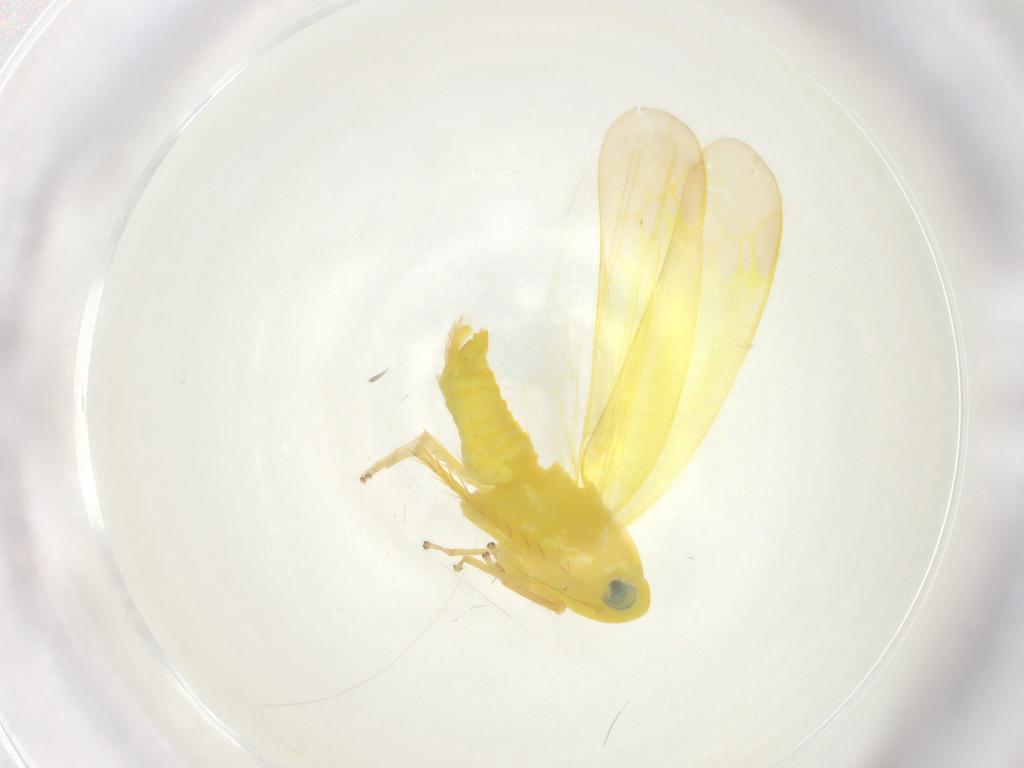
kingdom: Animalia
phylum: Arthropoda
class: Insecta
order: Hemiptera
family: Cicadellidae
